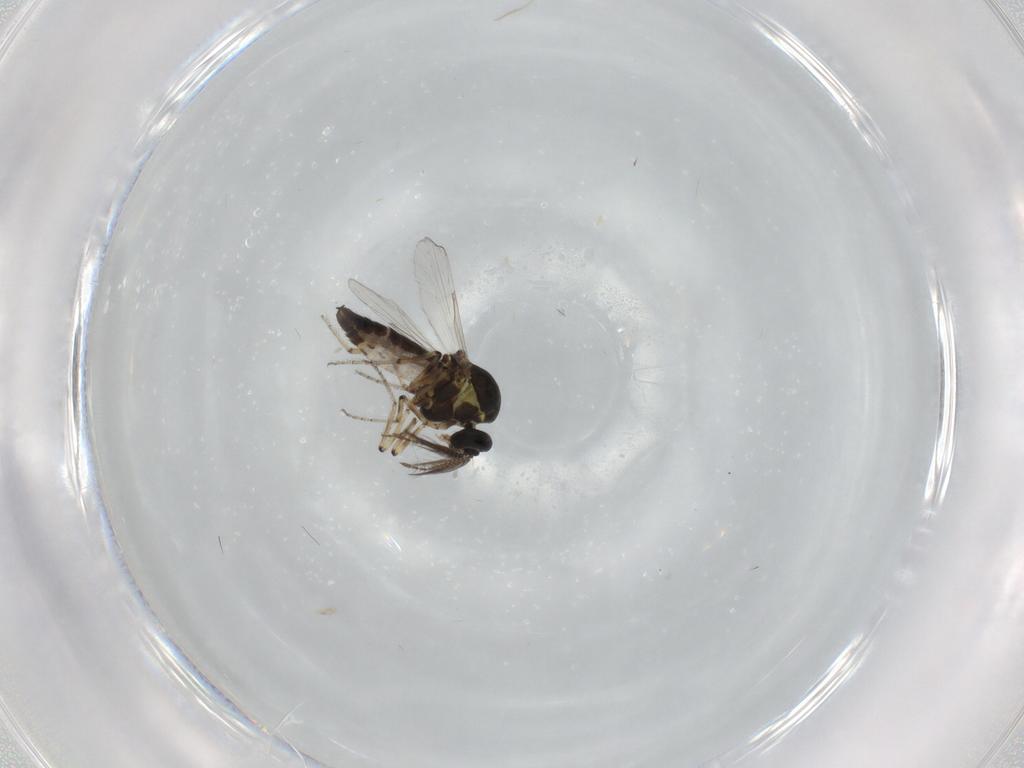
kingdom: Animalia
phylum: Arthropoda
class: Insecta
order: Diptera
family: Ceratopogonidae
